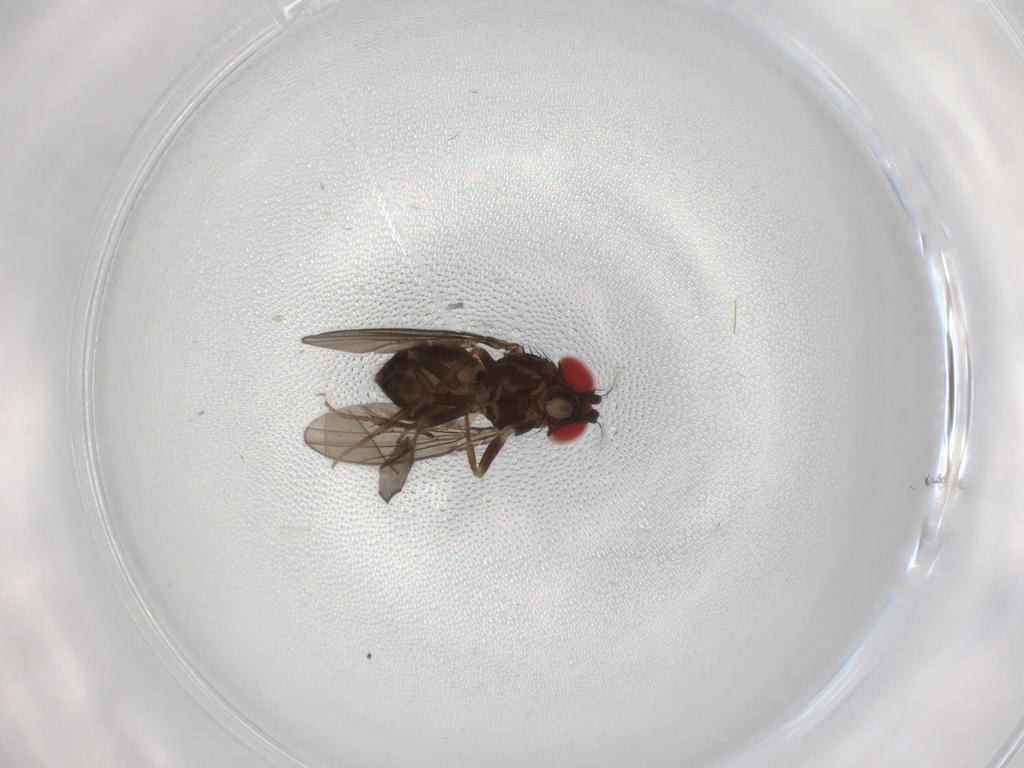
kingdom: Animalia
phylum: Arthropoda
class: Insecta
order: Diptera
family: Drosophilidae
